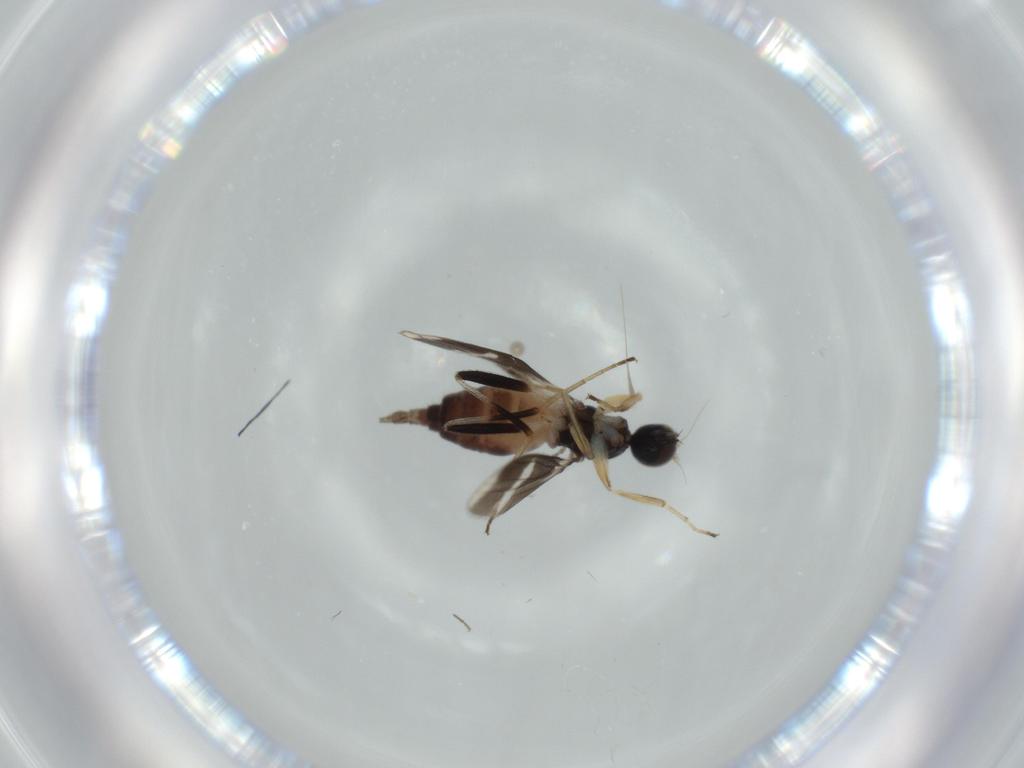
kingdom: Animalia
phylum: Arthropoda
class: Insecta
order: Diptera
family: Hybotidae
